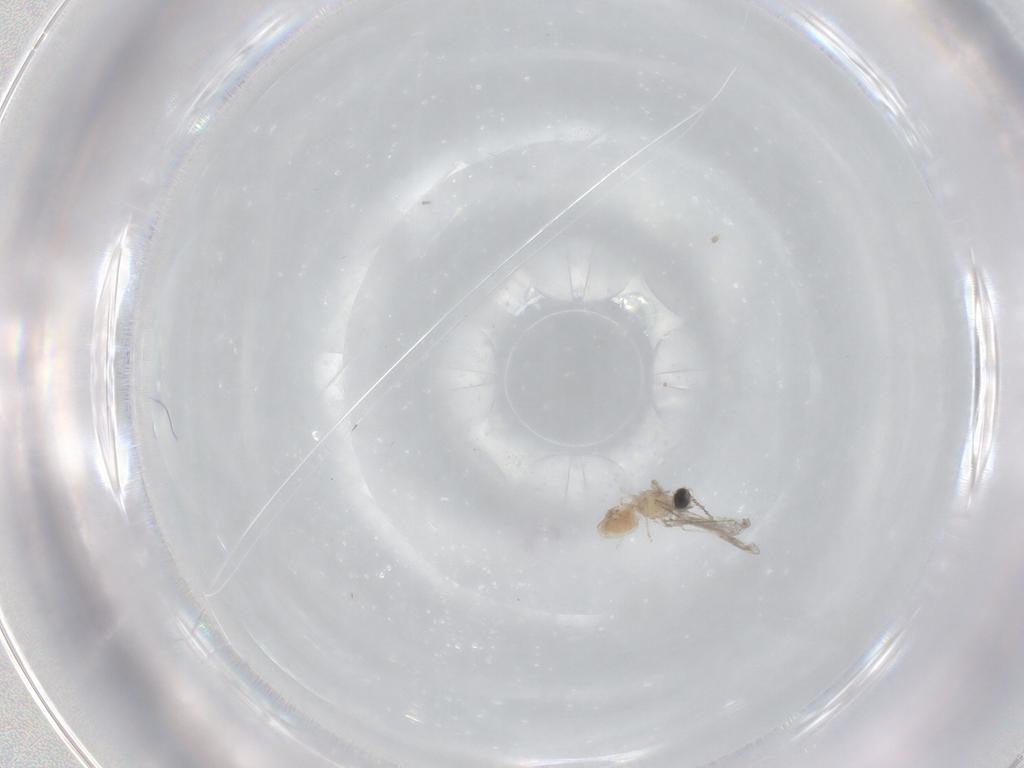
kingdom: Animalia
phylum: Arthropoda
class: Insecta
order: Diptera
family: Cecidomyiidae
